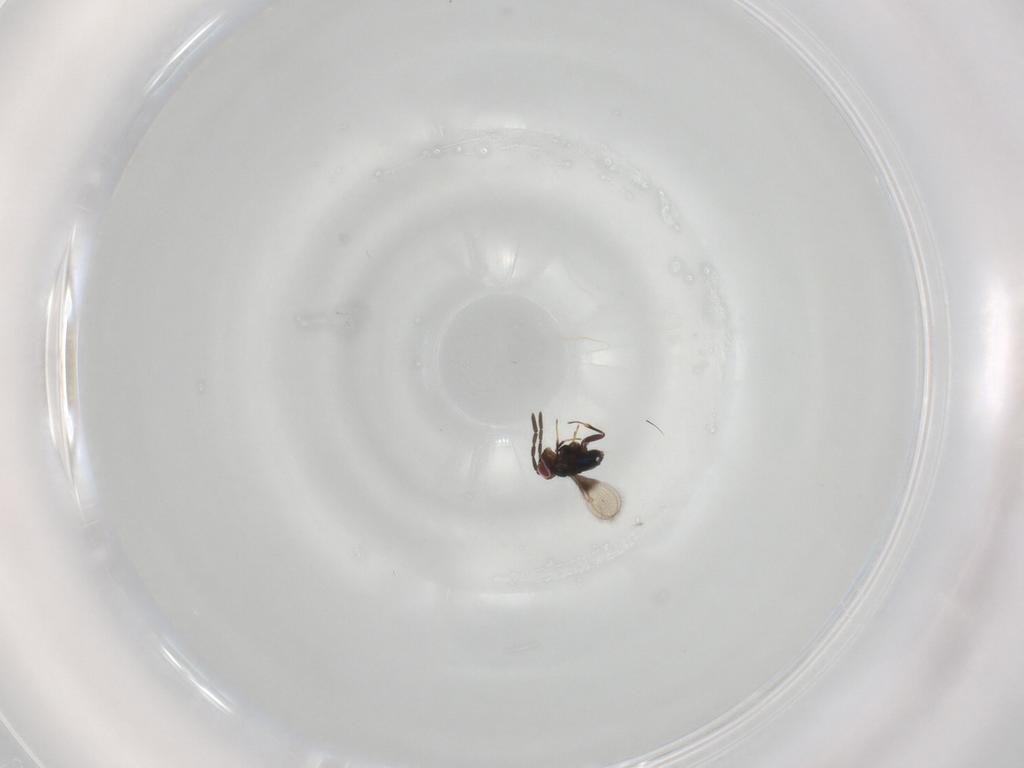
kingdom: Animalia
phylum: Arthropoda
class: Insecta
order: Hymenoptera
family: Azotidae
